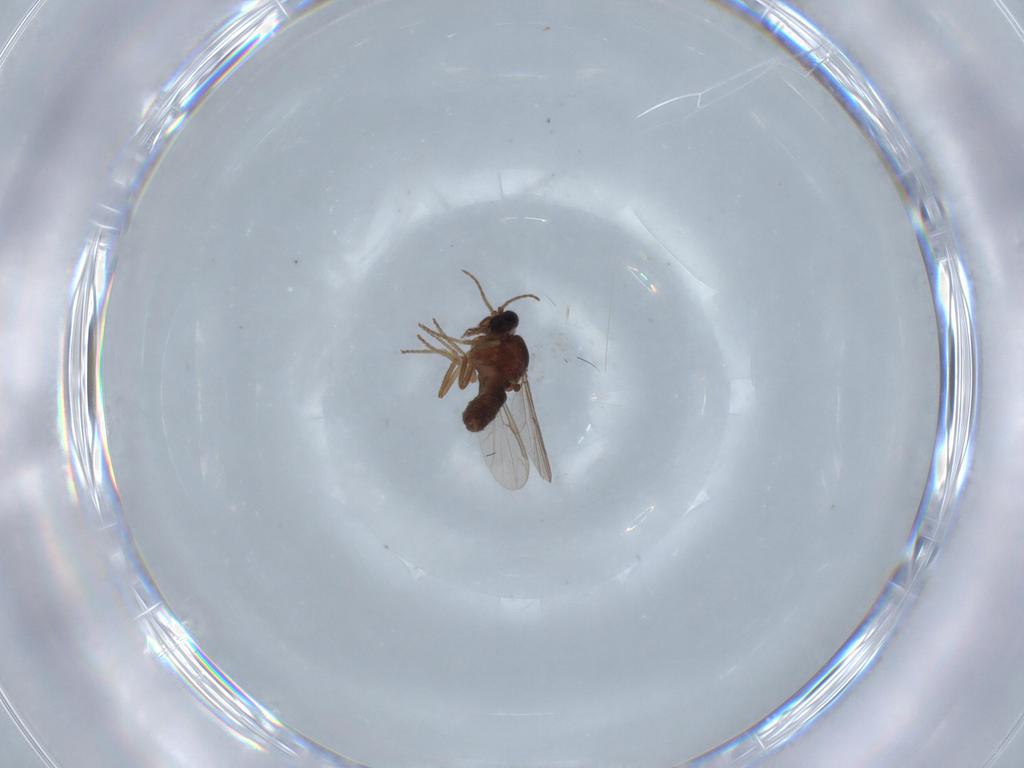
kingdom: Animalia
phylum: Arthropoda
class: Insecta
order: Diptera
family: Ceratopogonidae
